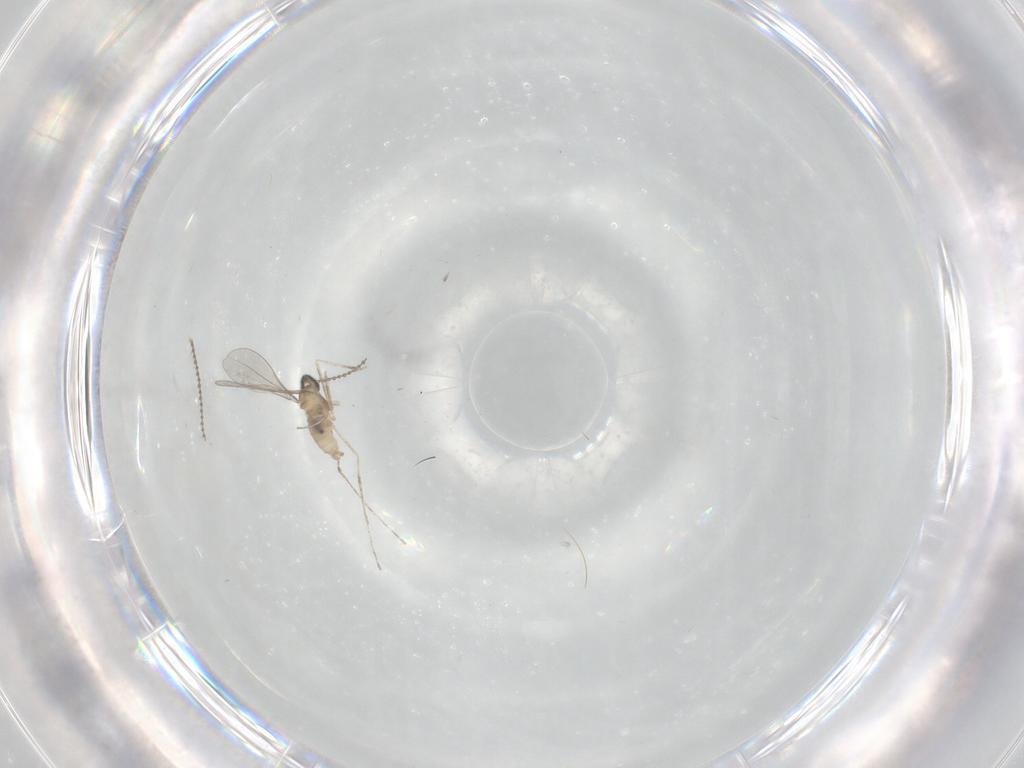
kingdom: Animalia
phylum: Arthropoda
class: Insecta
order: Diptera
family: Cecidomyiidae
